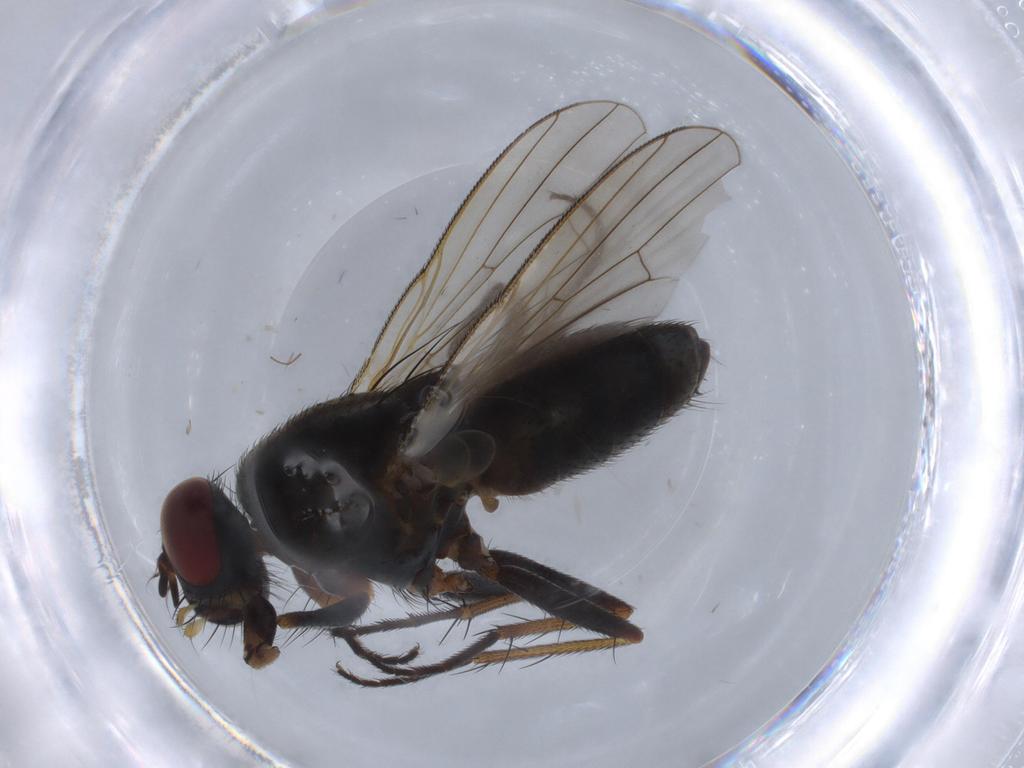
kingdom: Animalia
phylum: Arthropoda
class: Insecta
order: Diptera
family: Muscidae
